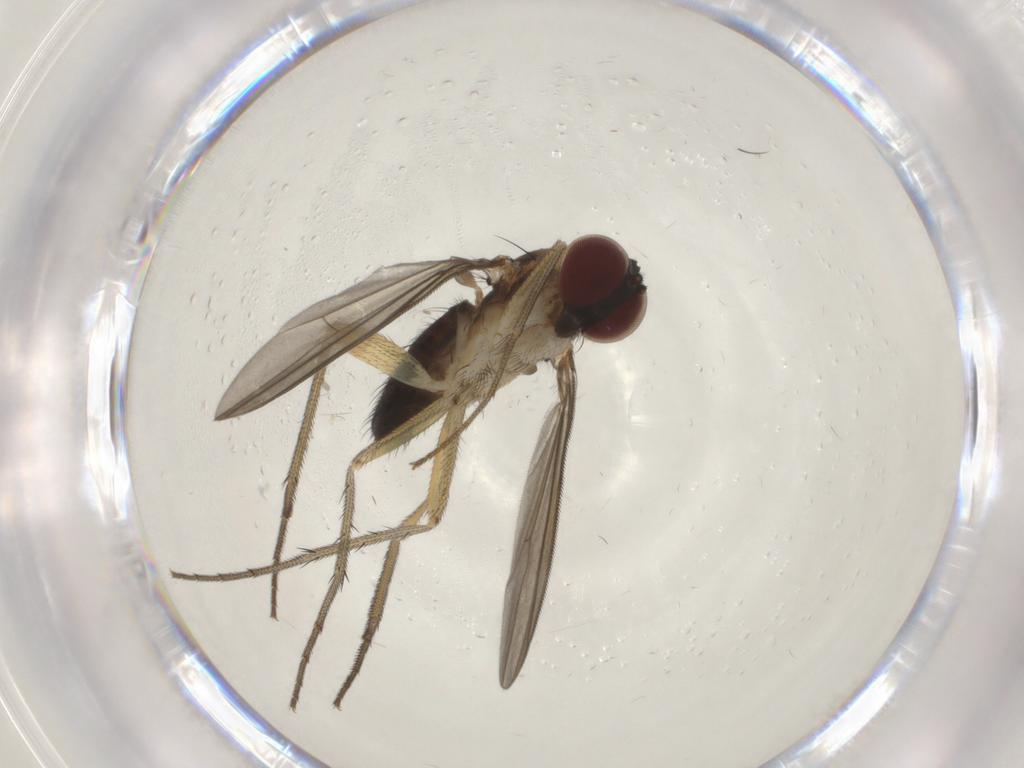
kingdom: Animalia
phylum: Arthropoda
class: Insecta
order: Diptera
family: Dolichopodidae
